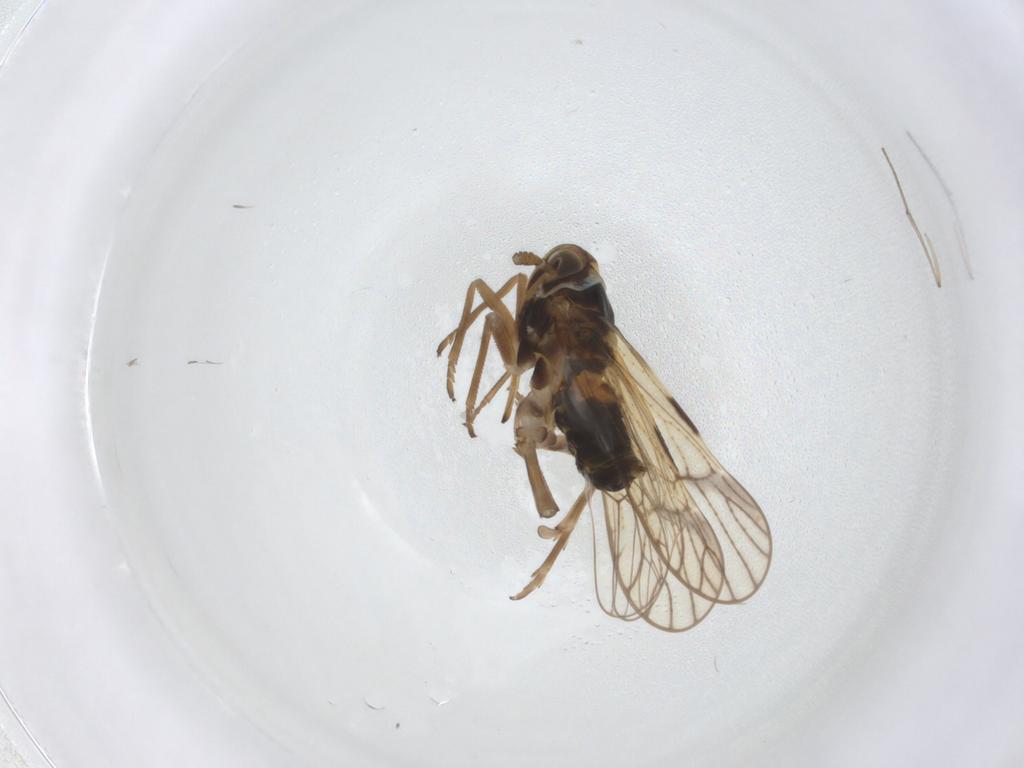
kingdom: Animalia
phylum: Arthropoda
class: Insecta
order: Hemiptera
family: Delphacidae
